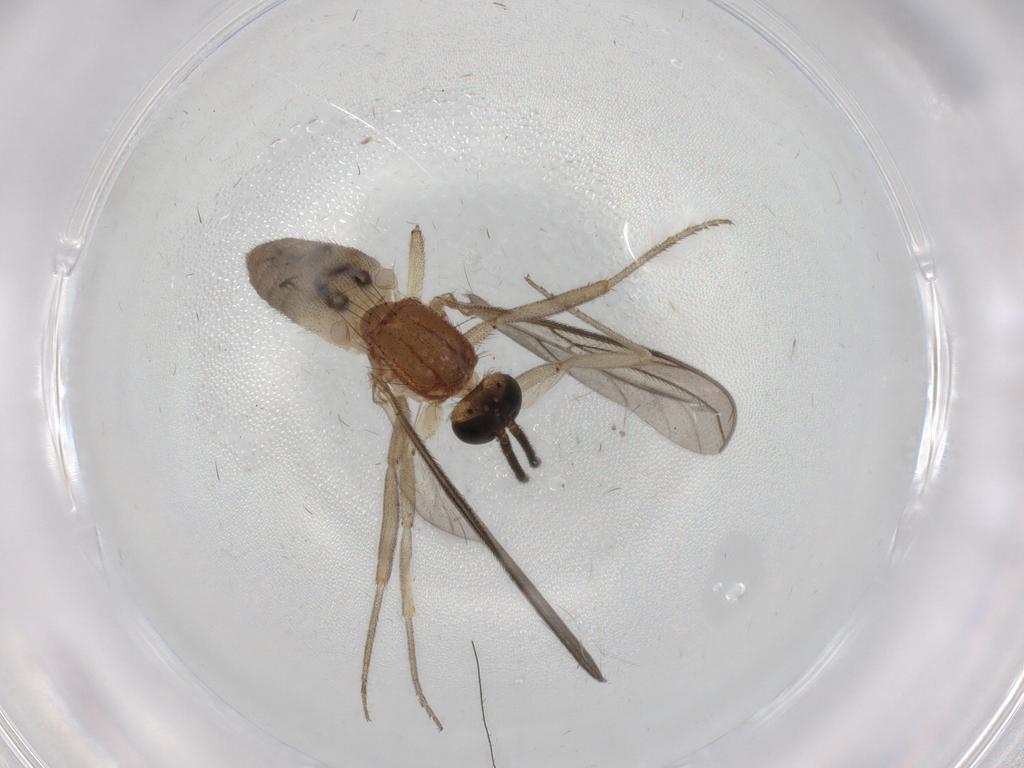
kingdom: Animalia
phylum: Arthropoda
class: Insecta
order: Diptera
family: Anisopodidae
